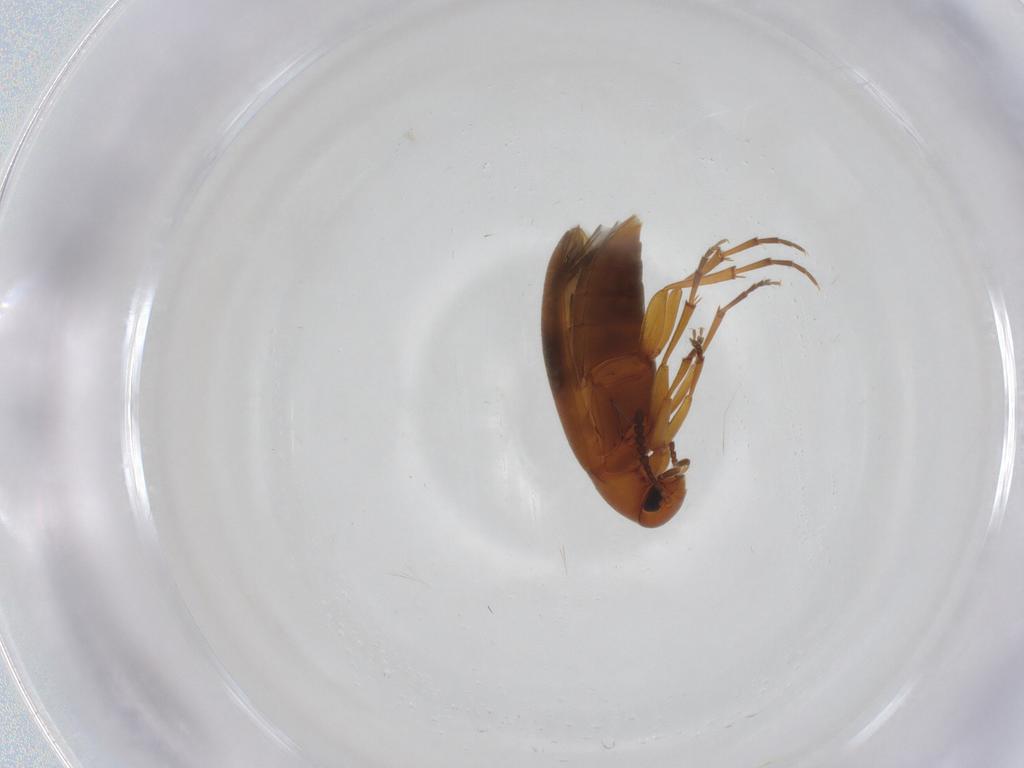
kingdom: Animalia
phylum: Arthropoda
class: Insecta
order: Coleoptera
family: Scraptiidae
